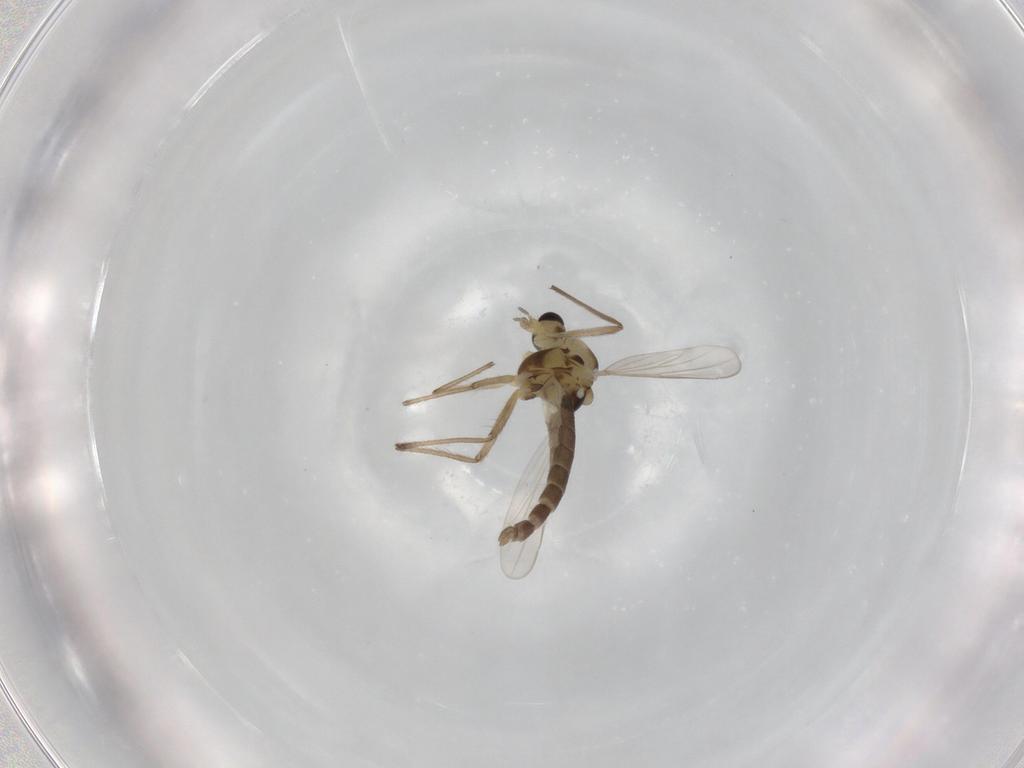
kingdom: Animalia
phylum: Arthropoda
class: Insecta
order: Diptera
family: Chironomidae
